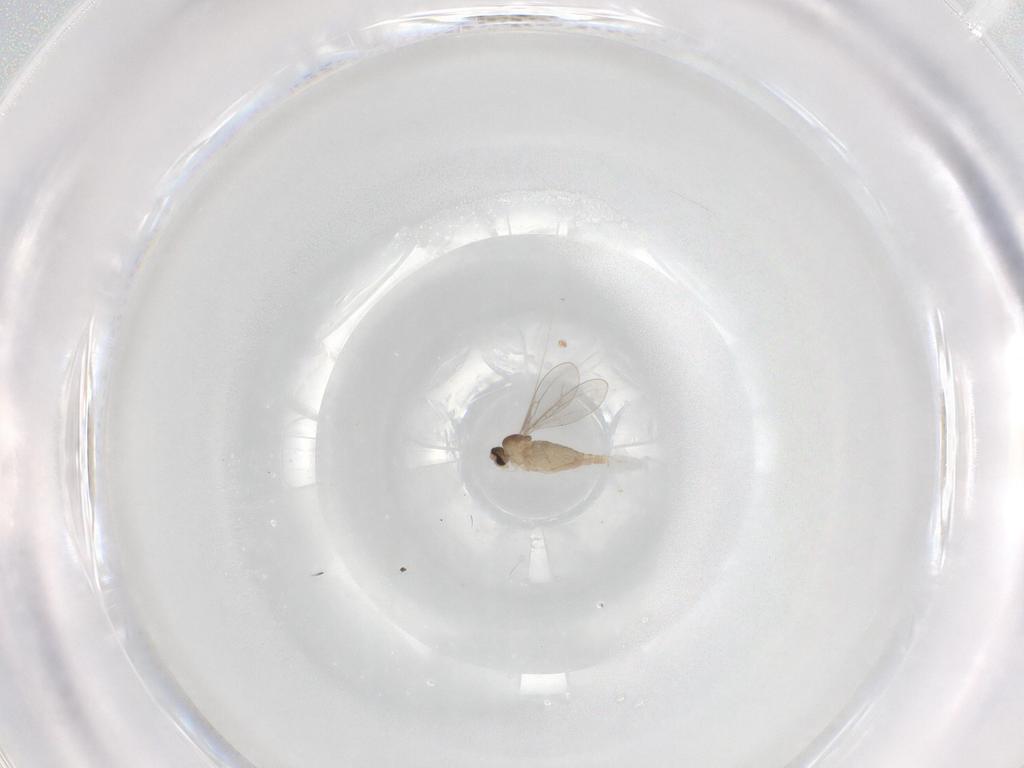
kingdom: Animalia
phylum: Arthropoda
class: Insecta
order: Diptera
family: Cecidomyiidae
